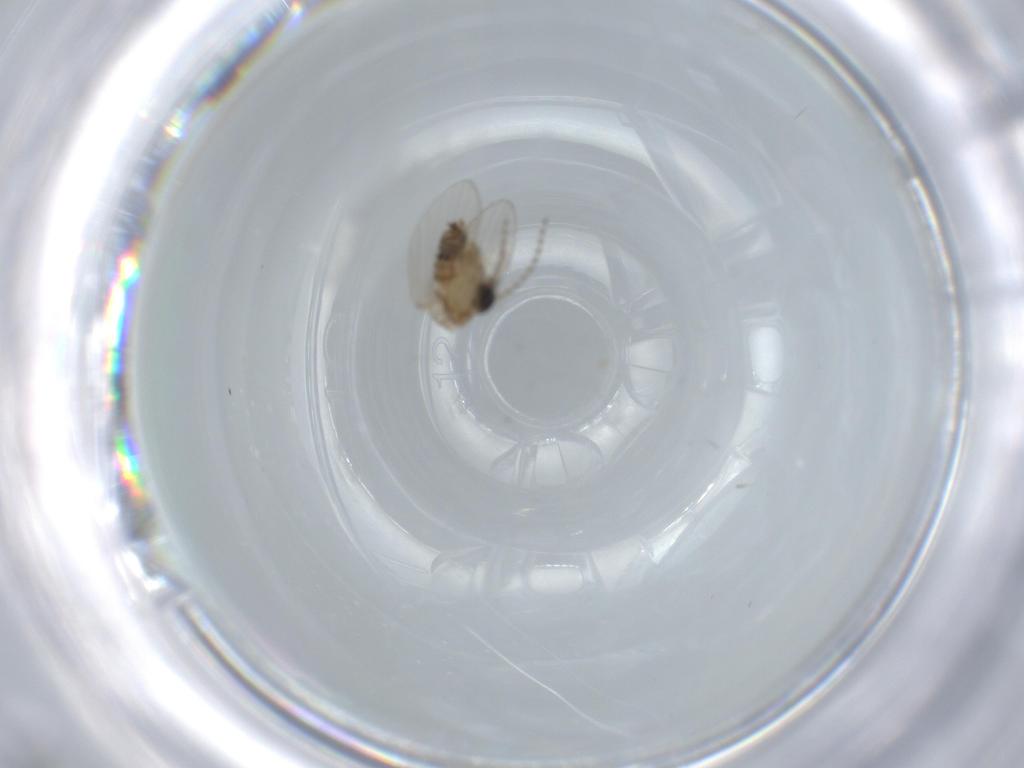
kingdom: Animalia
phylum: Arthropoda
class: Insecta
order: Diptera
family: Psychodidae
